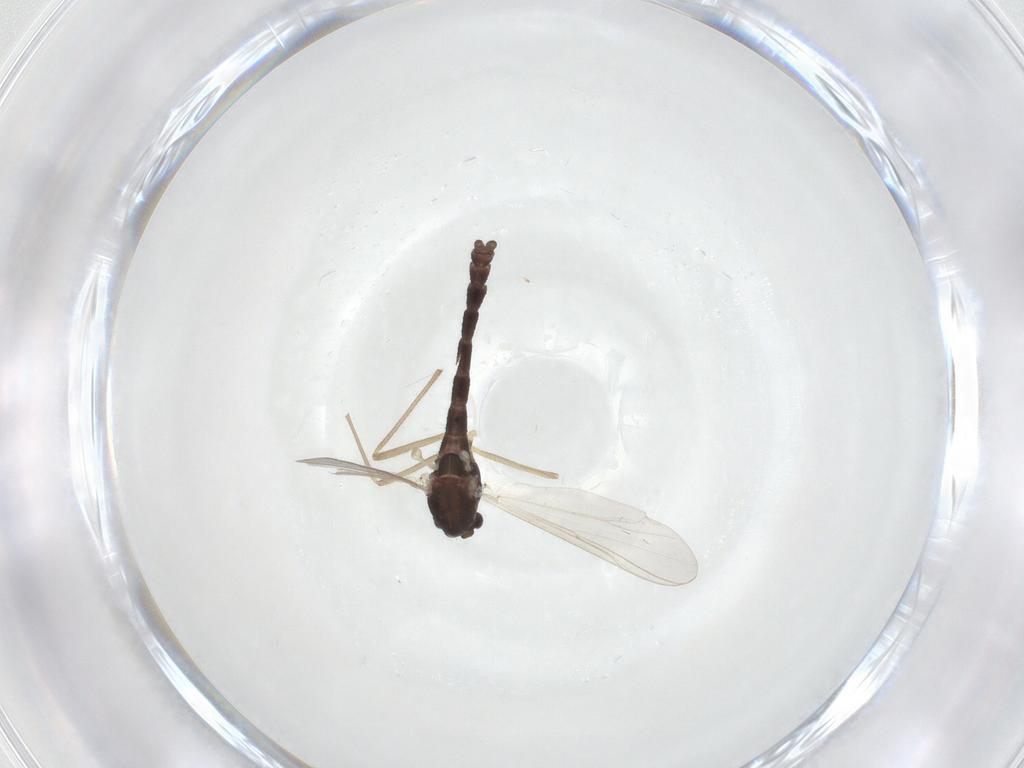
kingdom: Animalia
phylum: Arthropoda
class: Insecta
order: Diptera
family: Chironomidae
